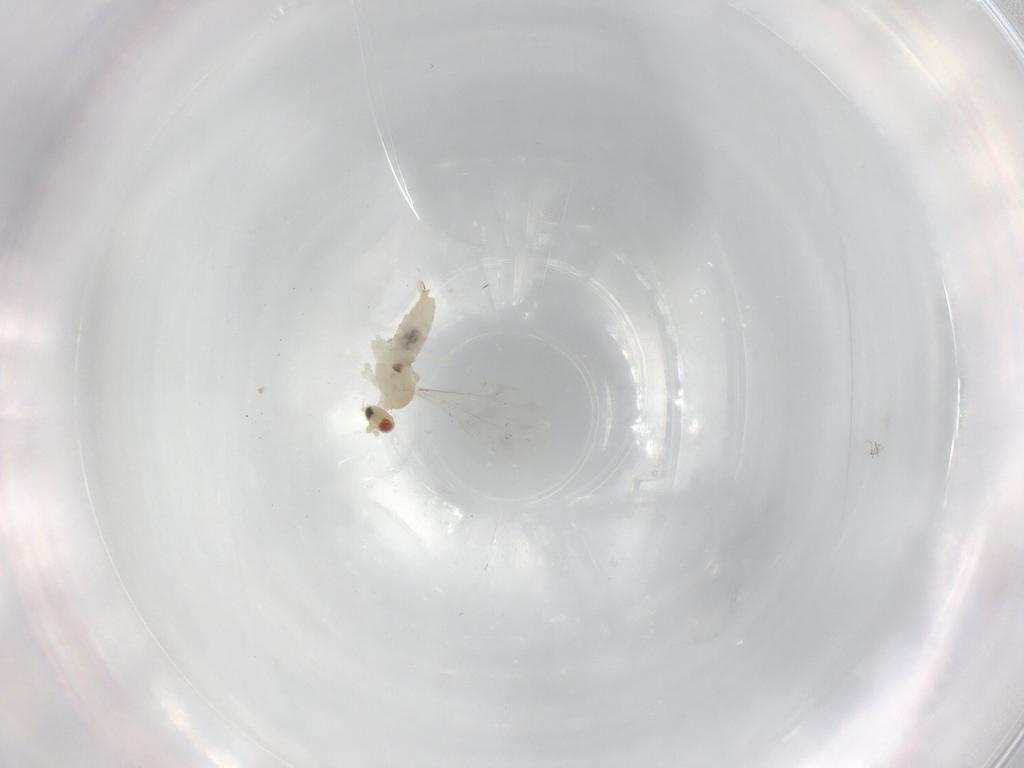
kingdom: Animalia
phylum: Arthropoda
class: Insecta
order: Diptera
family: Cecidomyiidae
